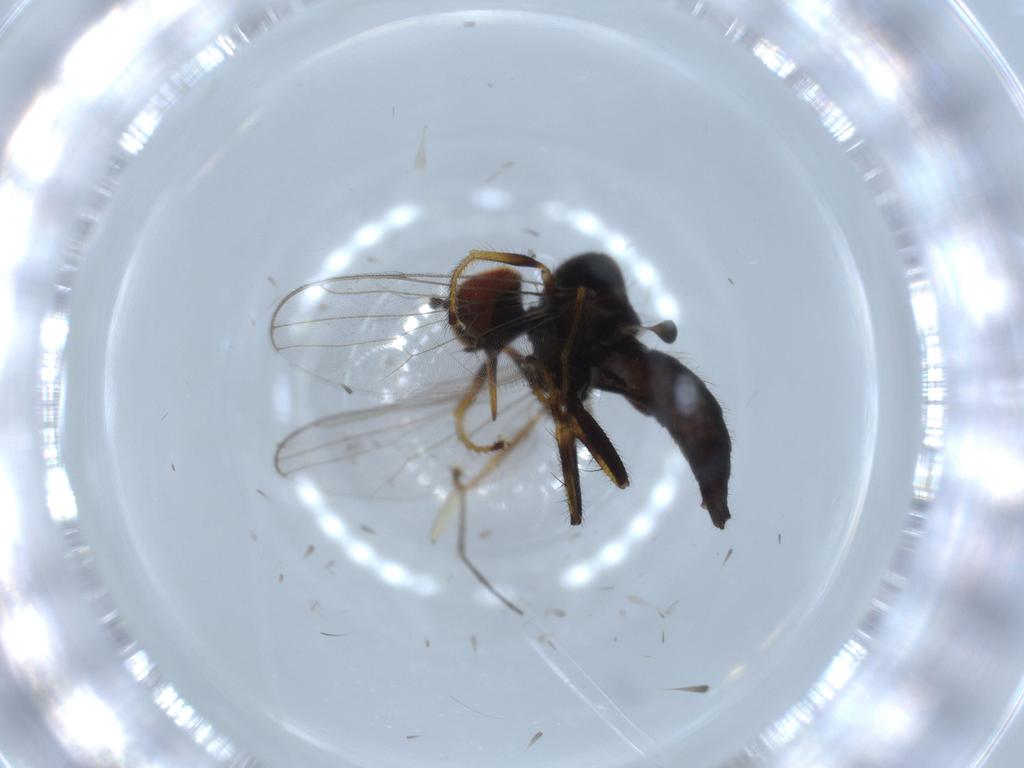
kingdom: Animalia
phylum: Arthropoda
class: Insecta
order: Diptera
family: Hybotidae
